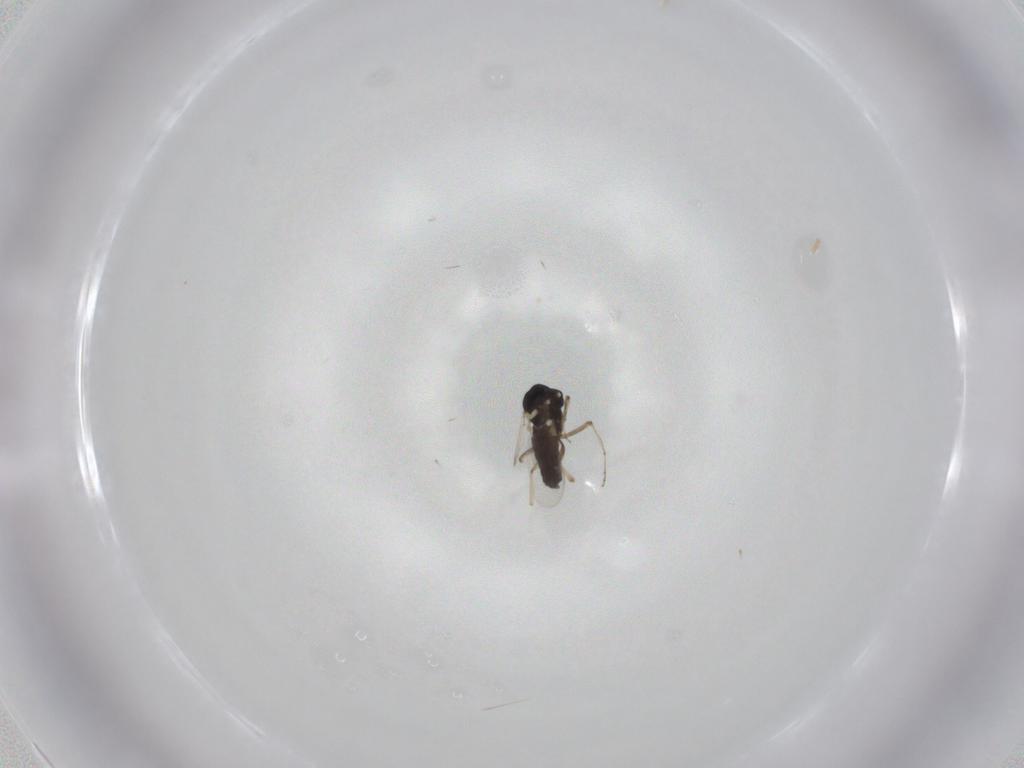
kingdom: Animalia
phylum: Arthropoda
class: Insecta
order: Diptera
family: Ceratopogonidae
